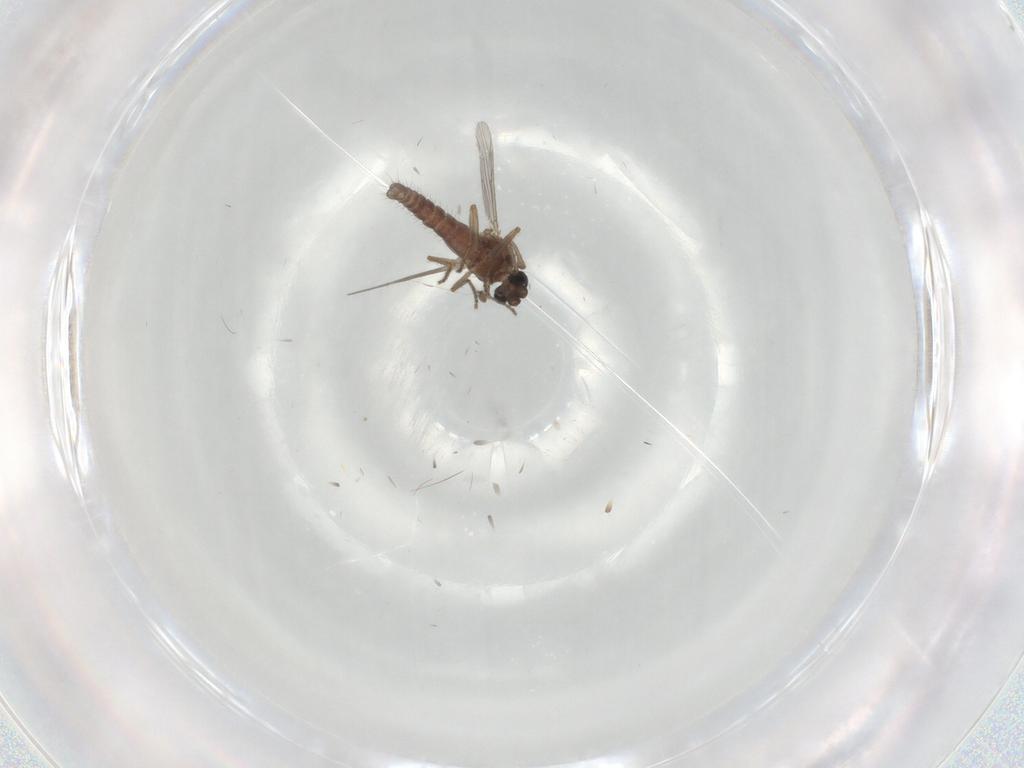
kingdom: Animalia
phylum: Arthropoda
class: Insecta
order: Diptera
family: Ceratopogonidae
